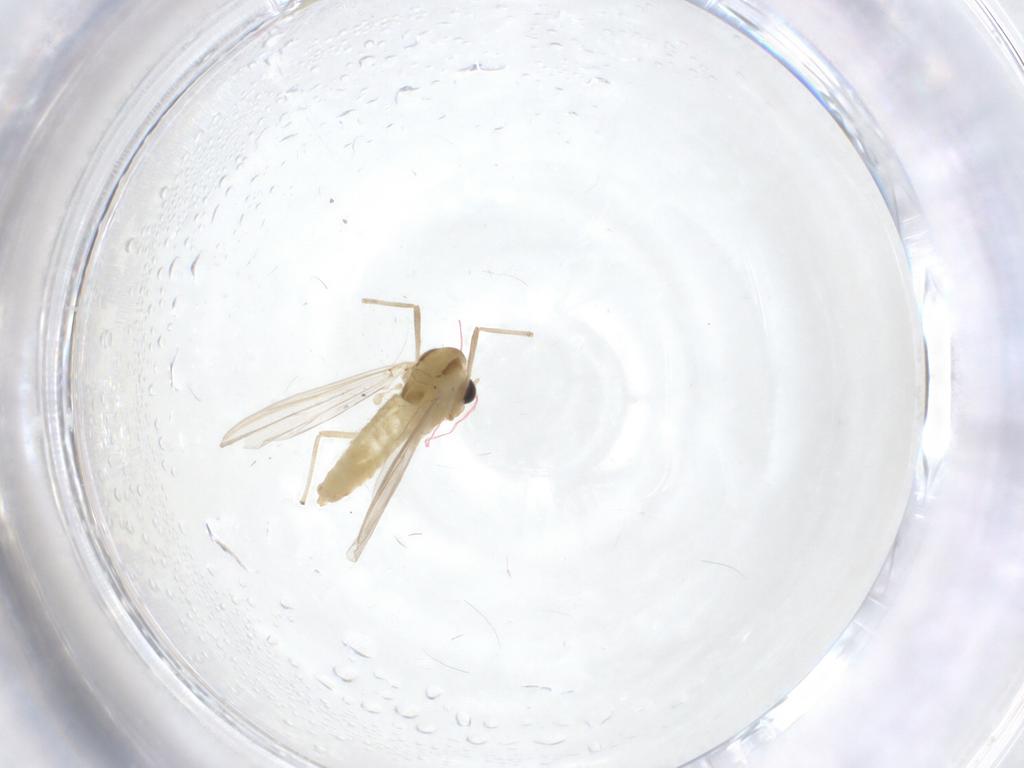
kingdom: Animalia
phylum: Arthropoda
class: Insecta
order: Diptera
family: Chironomidae
